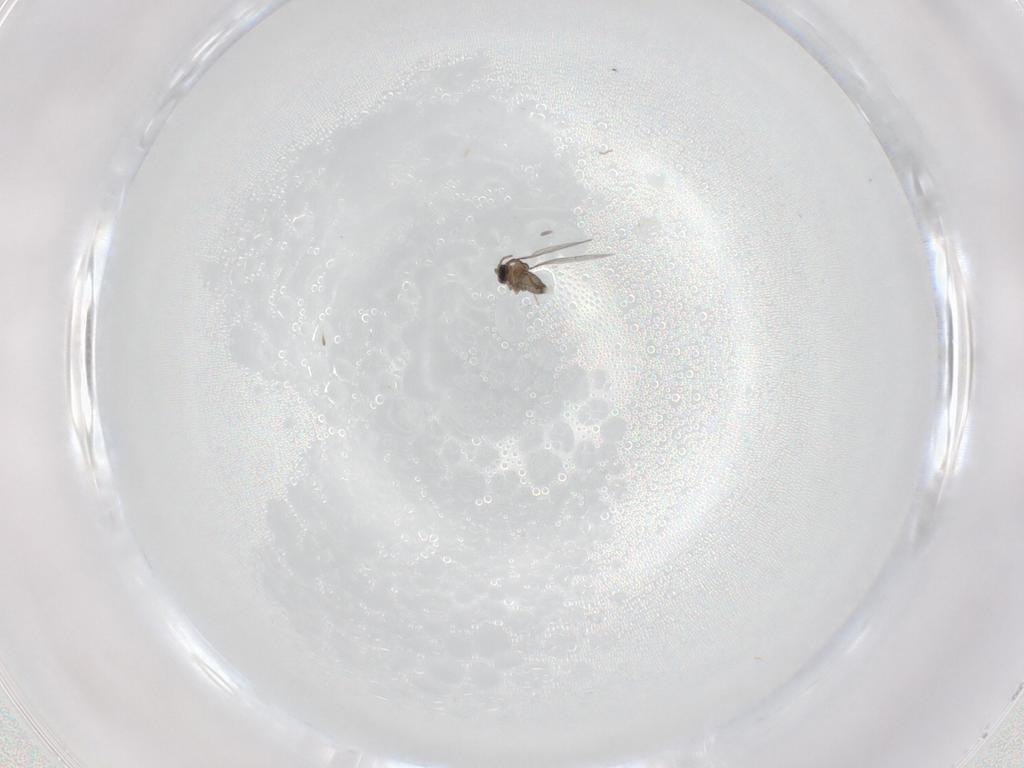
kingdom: Animalia
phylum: Arthropoda
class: Insecta
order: Diptera
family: Cecidomyiidae
